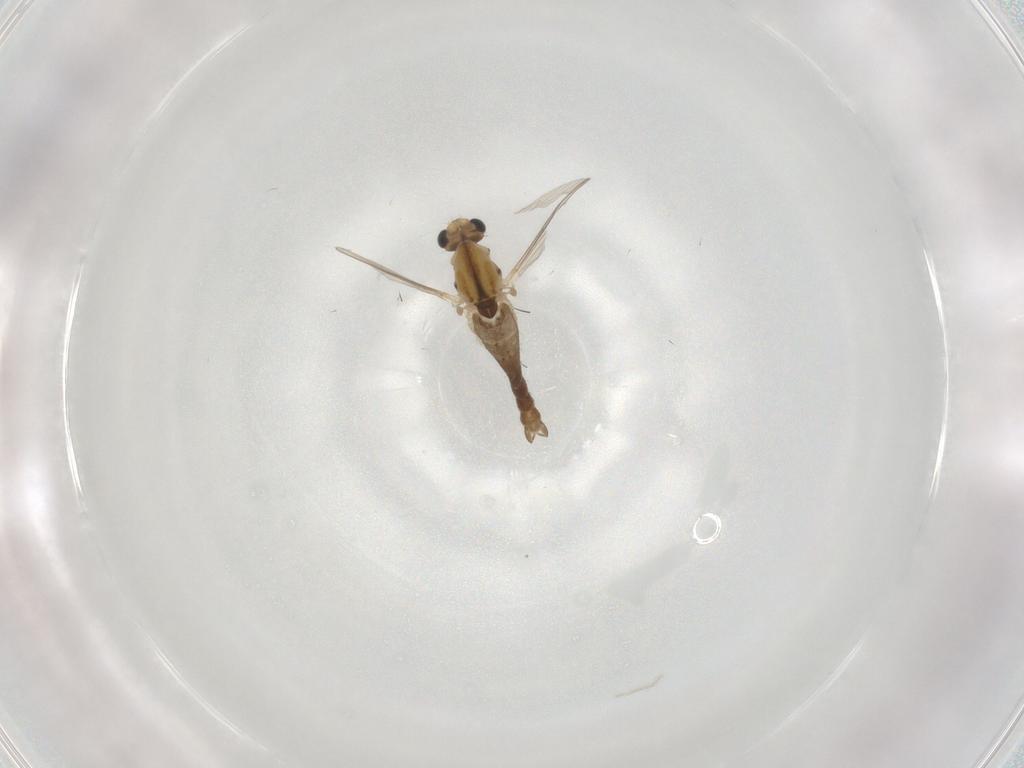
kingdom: Animalia
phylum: Arthropoda
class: Insecta
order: Diptera
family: Chironomidae
